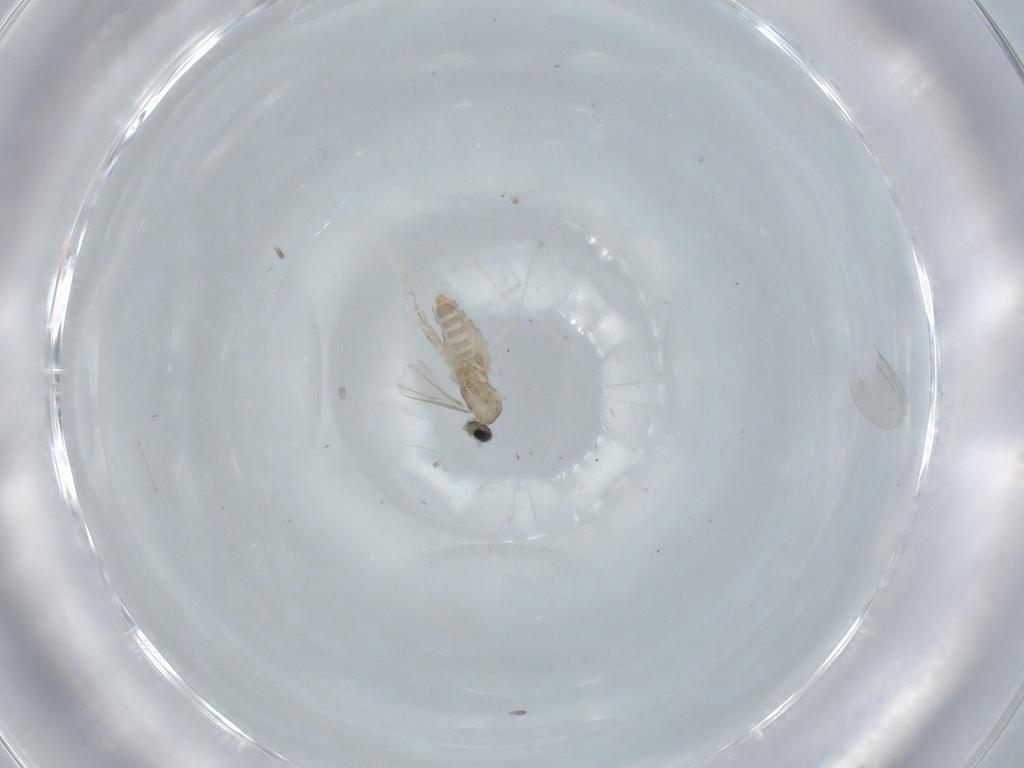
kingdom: Animalia
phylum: Arthropoda
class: Insecta
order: Diptera
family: Cecidomyiidae
